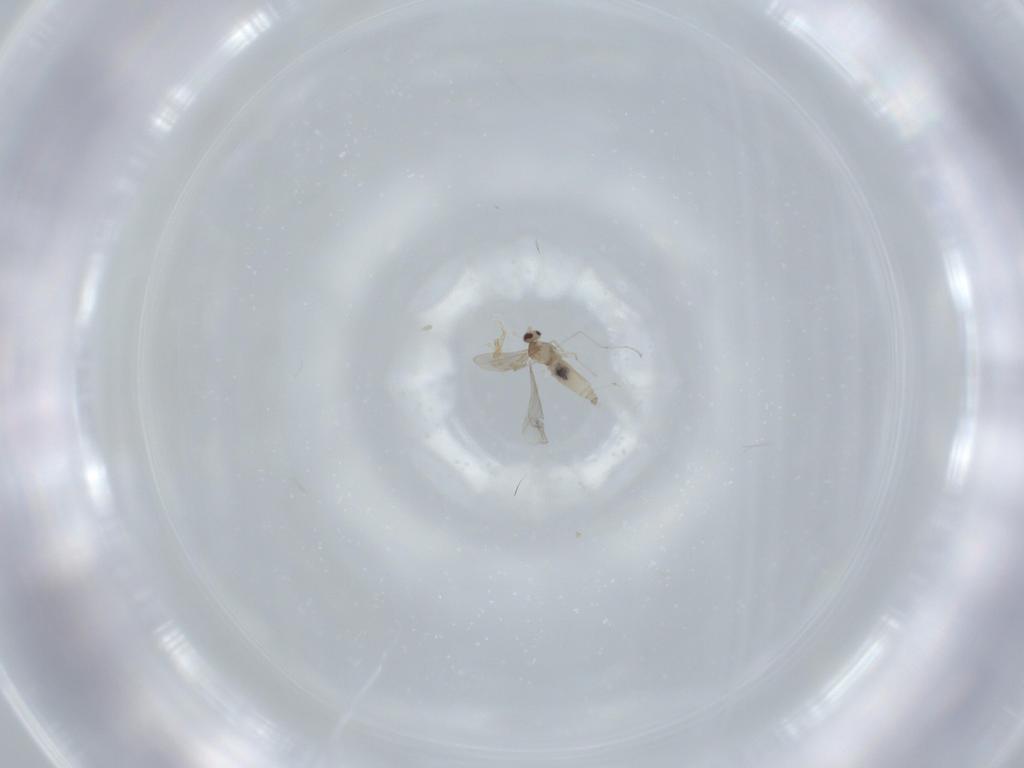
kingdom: Animalia
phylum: Arthropoda
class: Insecta
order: Diptera
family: Cecidomyiidae
